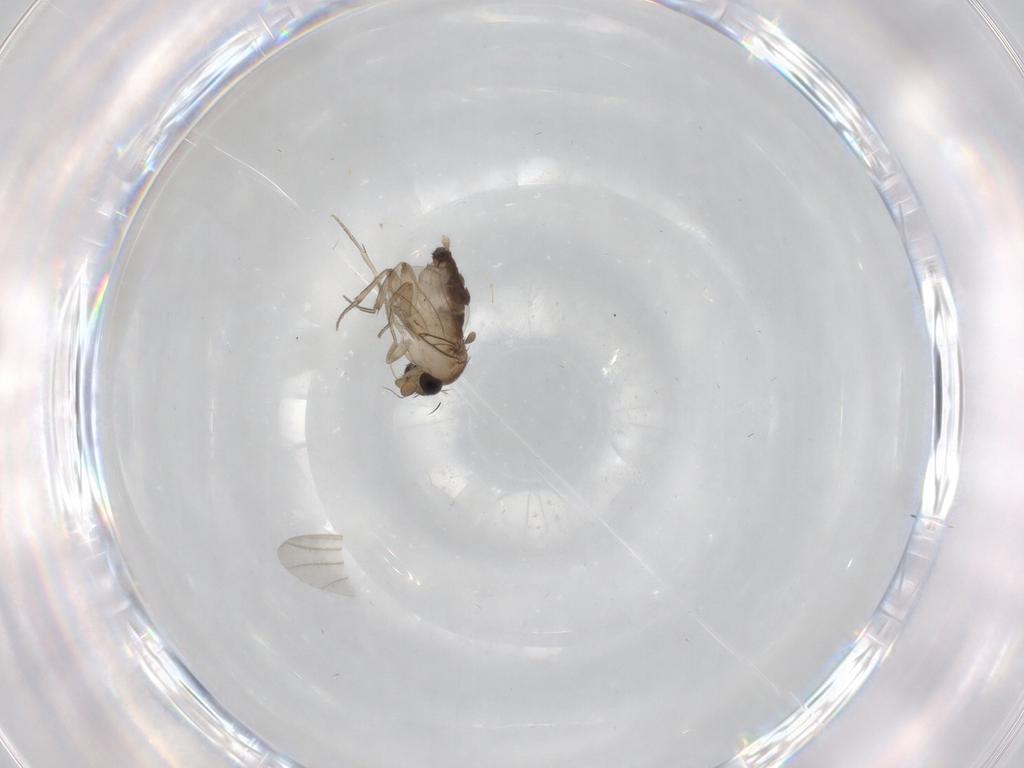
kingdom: Animalia
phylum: Arthropoda
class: Insecta
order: Diptera
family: Phoridae
